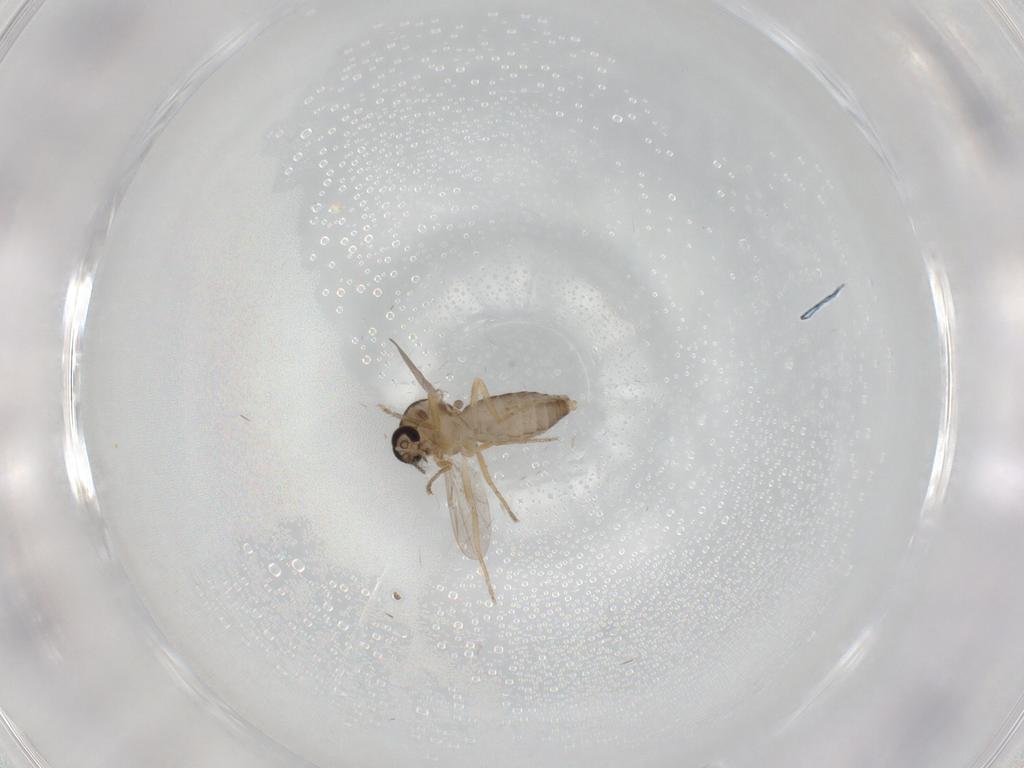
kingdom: Animalia
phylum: Arthropoda
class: Insecta
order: Diptera
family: Ceratopogonidae
